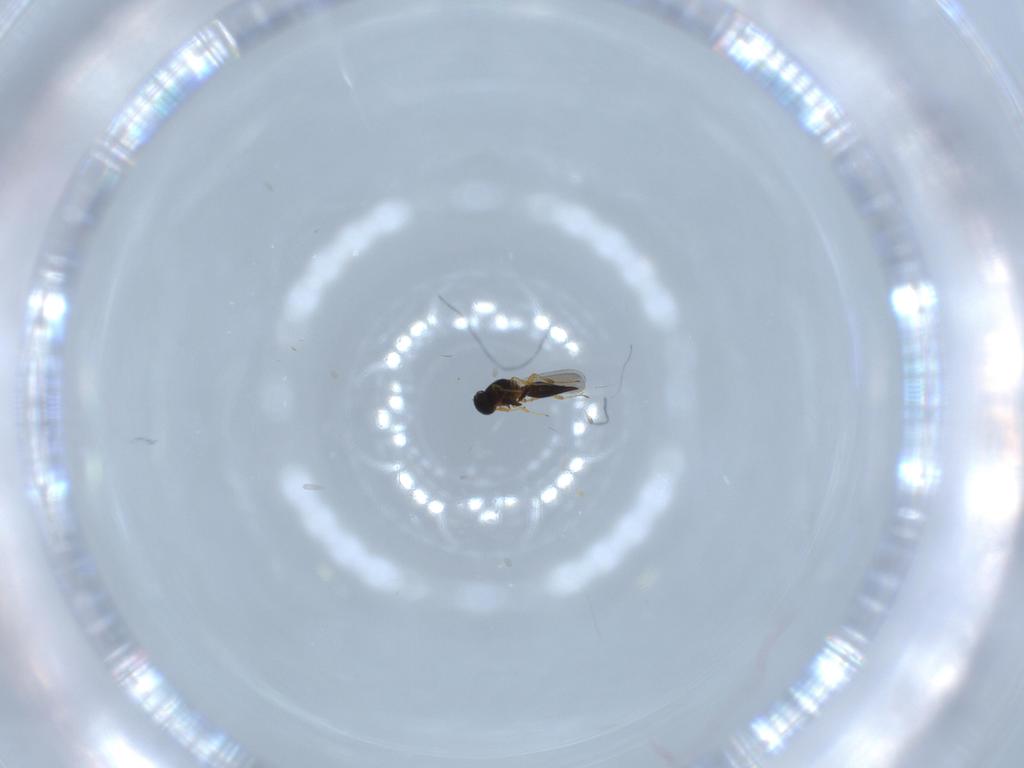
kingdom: Animalia
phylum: Arthropoda
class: Insecta
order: Hymenoptera
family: Platygastridae
